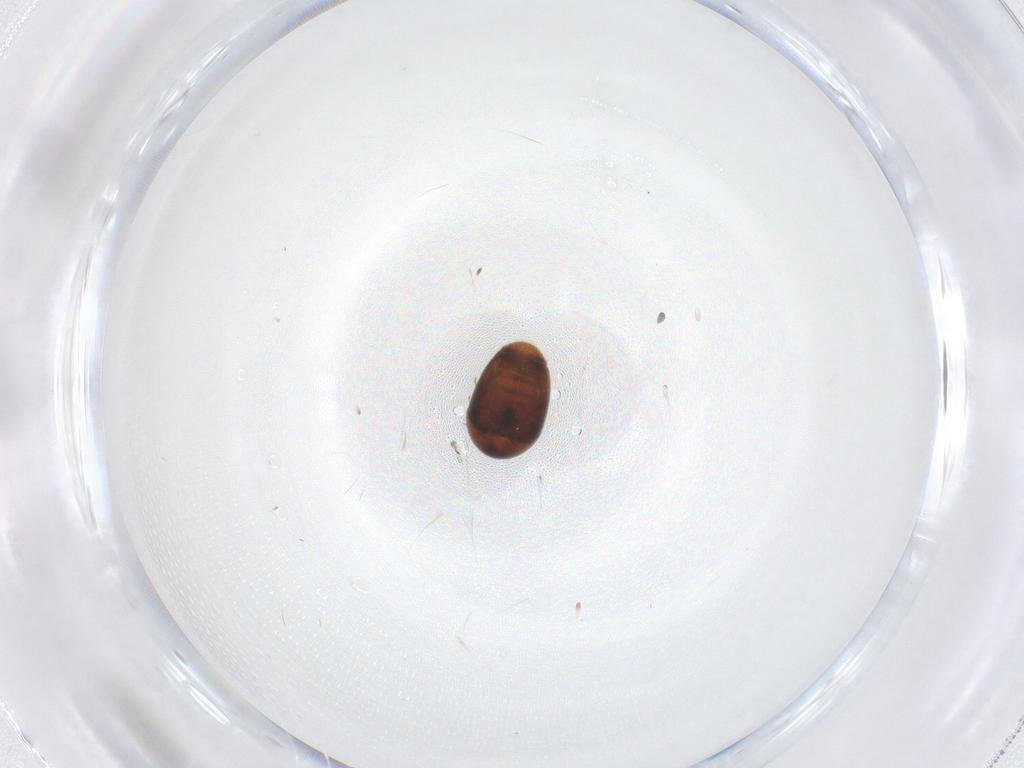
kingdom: Animalia
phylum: Arthropoda
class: Insecta
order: Coleoptera
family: Corylophidae
